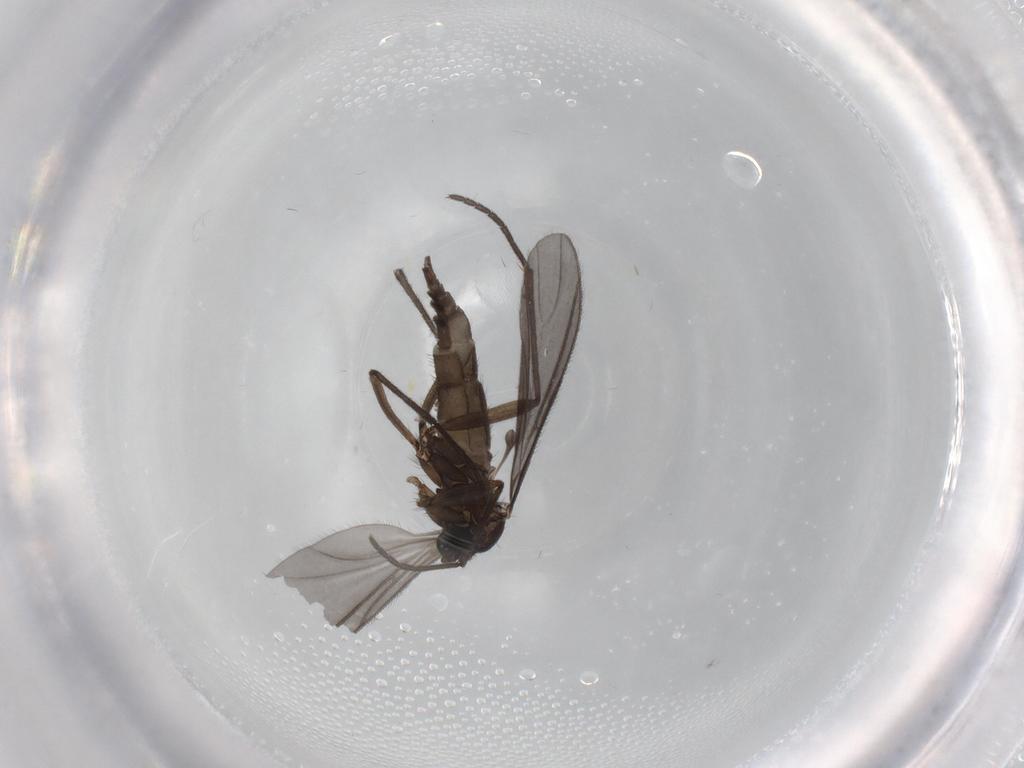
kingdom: Animalia
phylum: Arthropoda
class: Insecta
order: Diptera
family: Sciaridae
